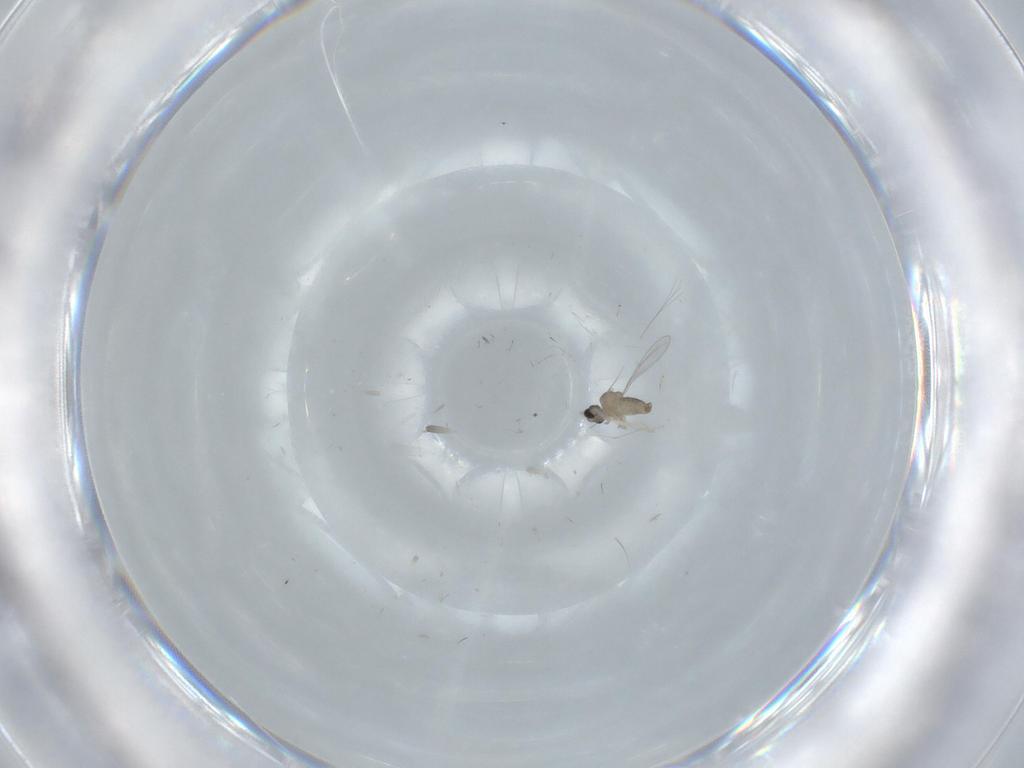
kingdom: Animalia
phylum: Arthropoda
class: Insecta
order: Diptera
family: Cecidomyiidae
